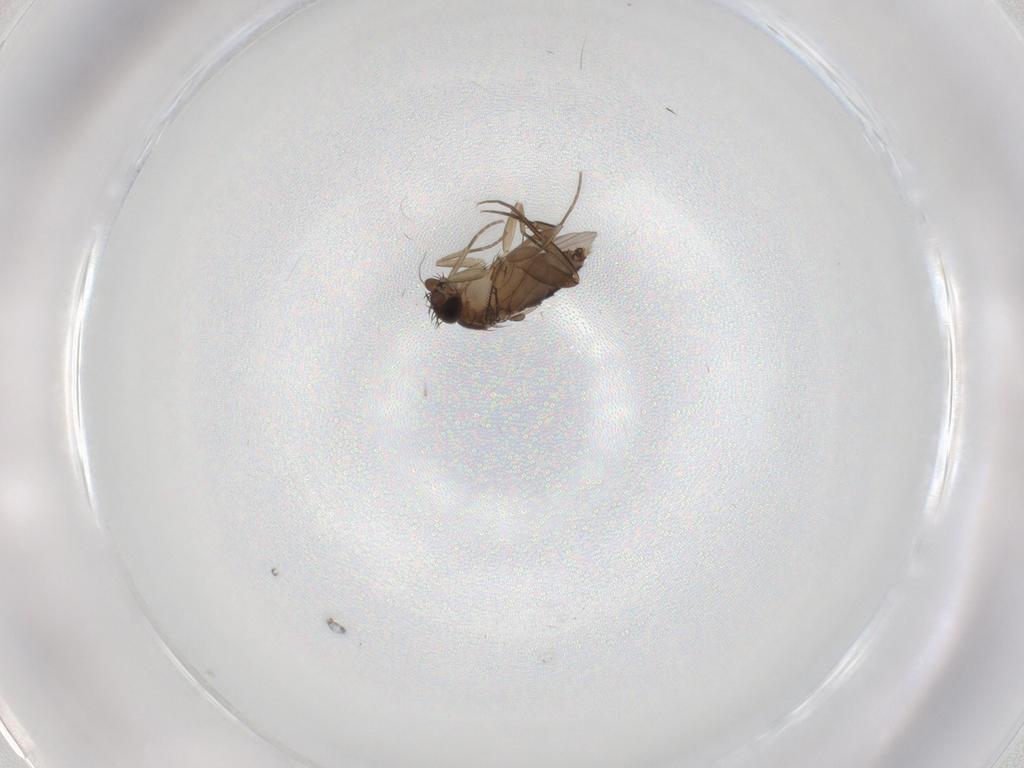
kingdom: Animalia
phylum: Arthropoda
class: Insecta
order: Diptera
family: Phoridae
